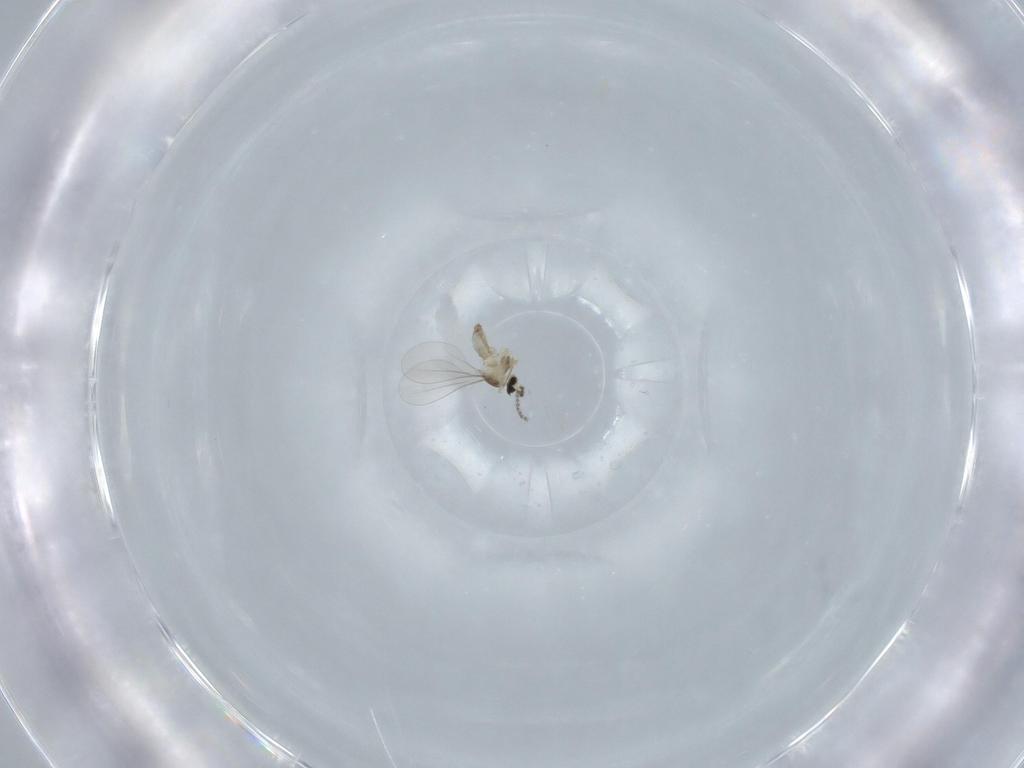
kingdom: Animalia
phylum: Arthropoda
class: Insecta
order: Diptera
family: Cecidomyiidae
